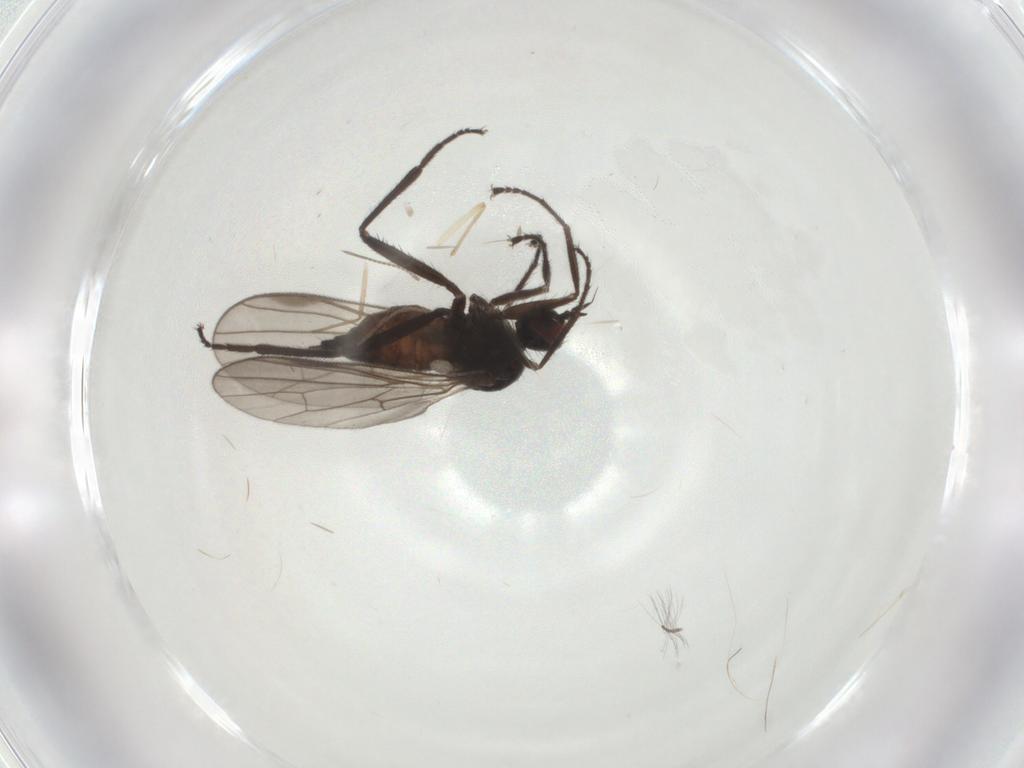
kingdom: Animalia
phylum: Arthropoda
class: Insecta
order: Diptera
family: Hybotidae
